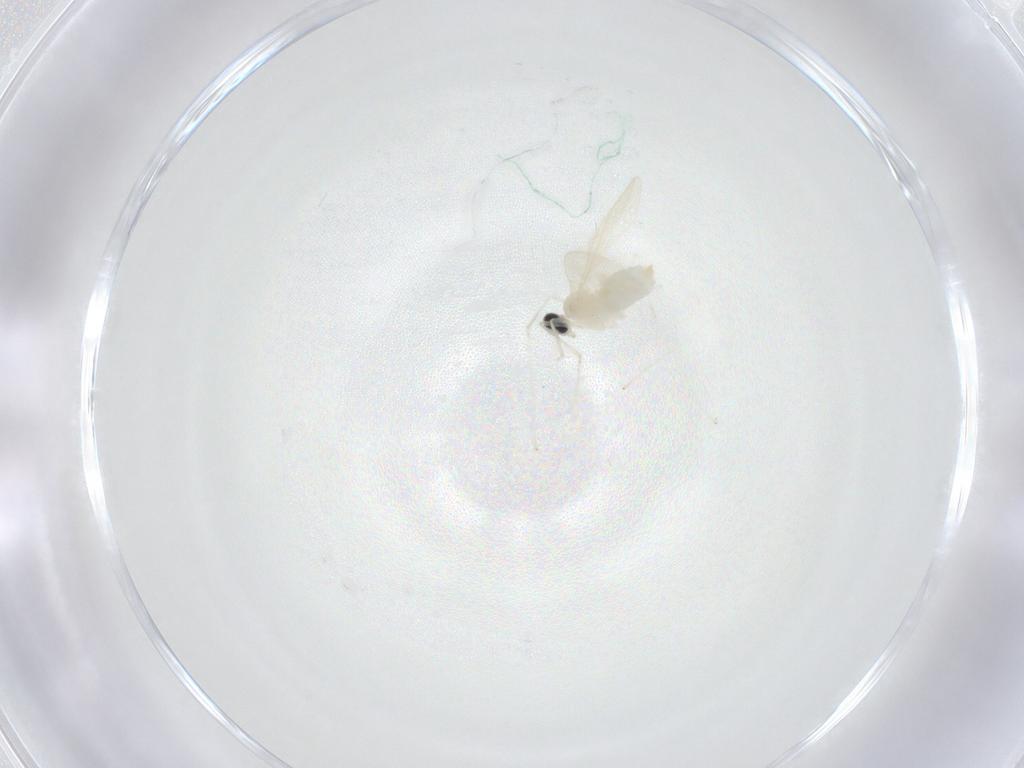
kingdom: Animalia
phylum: Arthropoda
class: Insecta
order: Diptera
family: Cecidomyiidae
